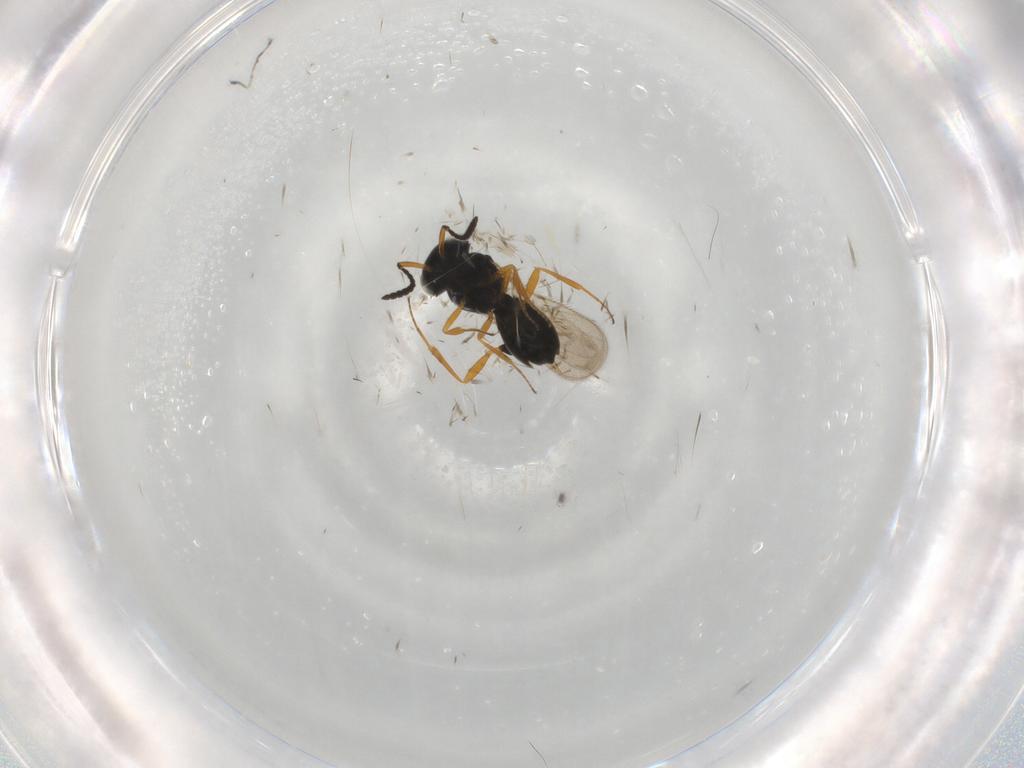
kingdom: Animalia
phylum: Arthropoda
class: Insecta
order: Hymenoptera
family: Scelionidae
